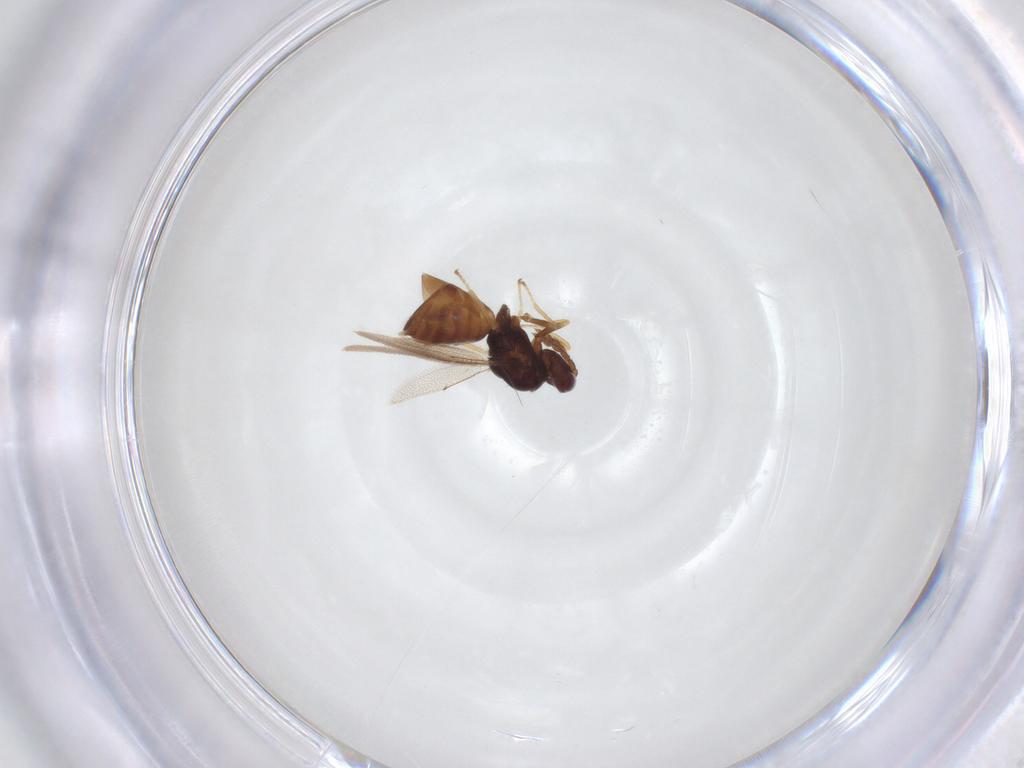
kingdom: Animalia
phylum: Arthropoda
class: Insecta
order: Hymenoptera
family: Eulophidae
